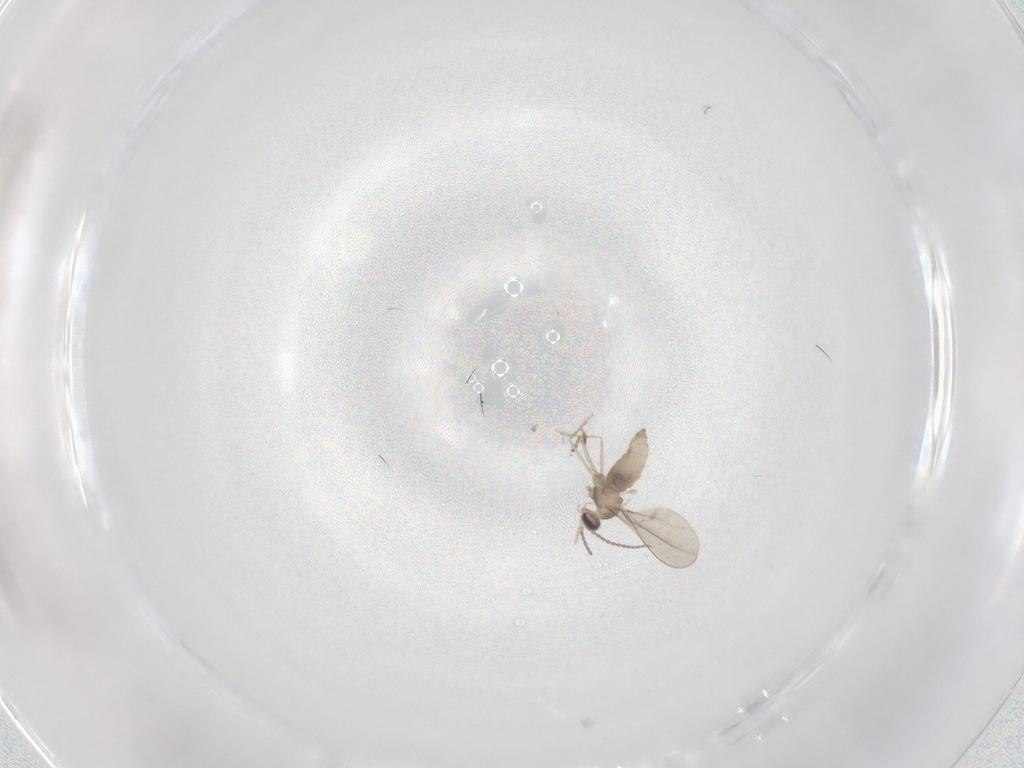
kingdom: Animalia
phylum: Arthropoda
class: Insecta
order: Diptera
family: Cecidomyiidae
